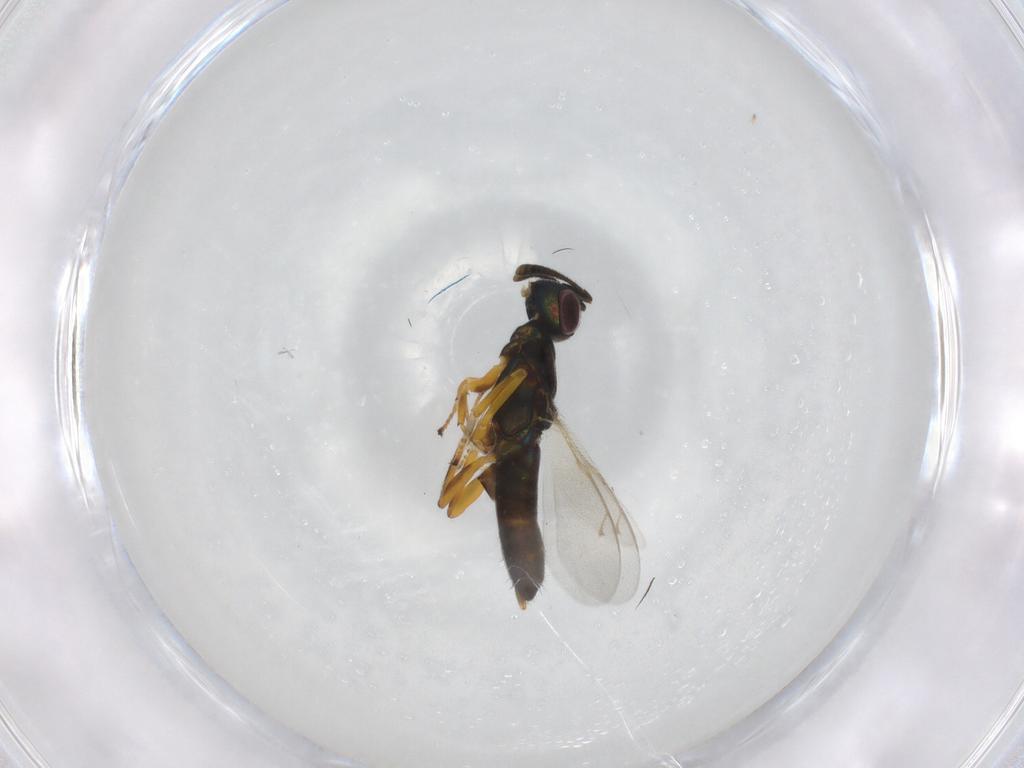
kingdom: Animalia
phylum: Arthropoda
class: Insecta
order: Hymenoptera
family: Eupelmidae
